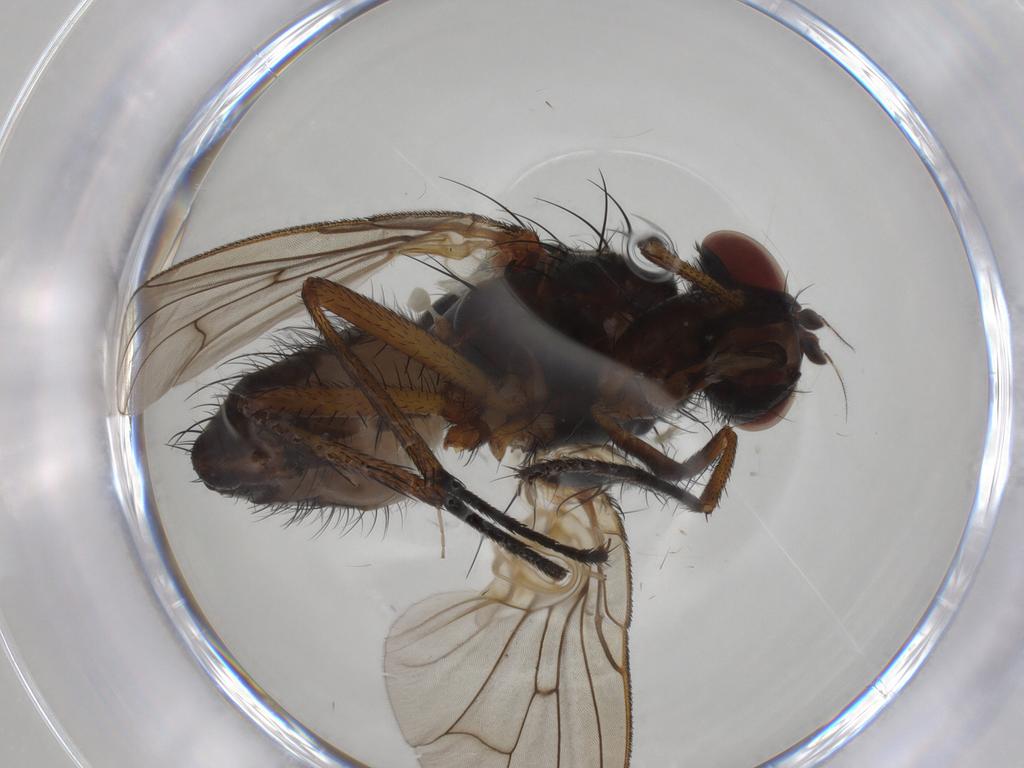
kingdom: Animalia
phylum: Arthropoda
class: Insecta
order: Diptera
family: Anthomyiidae
